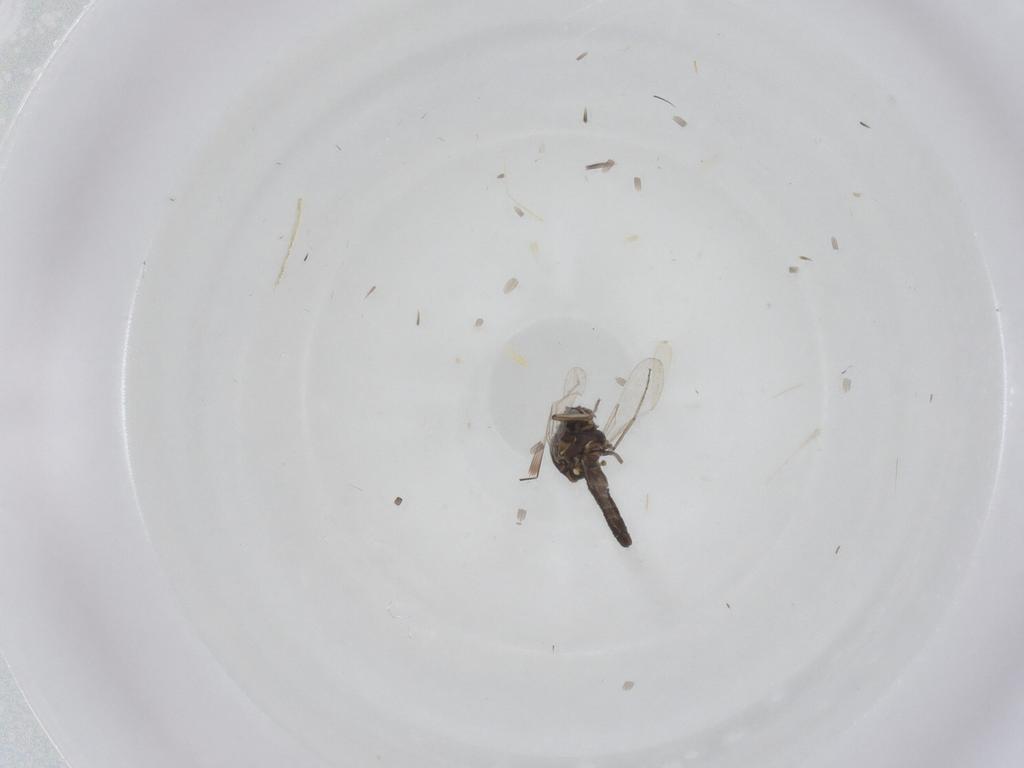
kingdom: Animalia
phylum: Arthropoda
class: Insecta
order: Diptera
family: Ceratopogonidae
